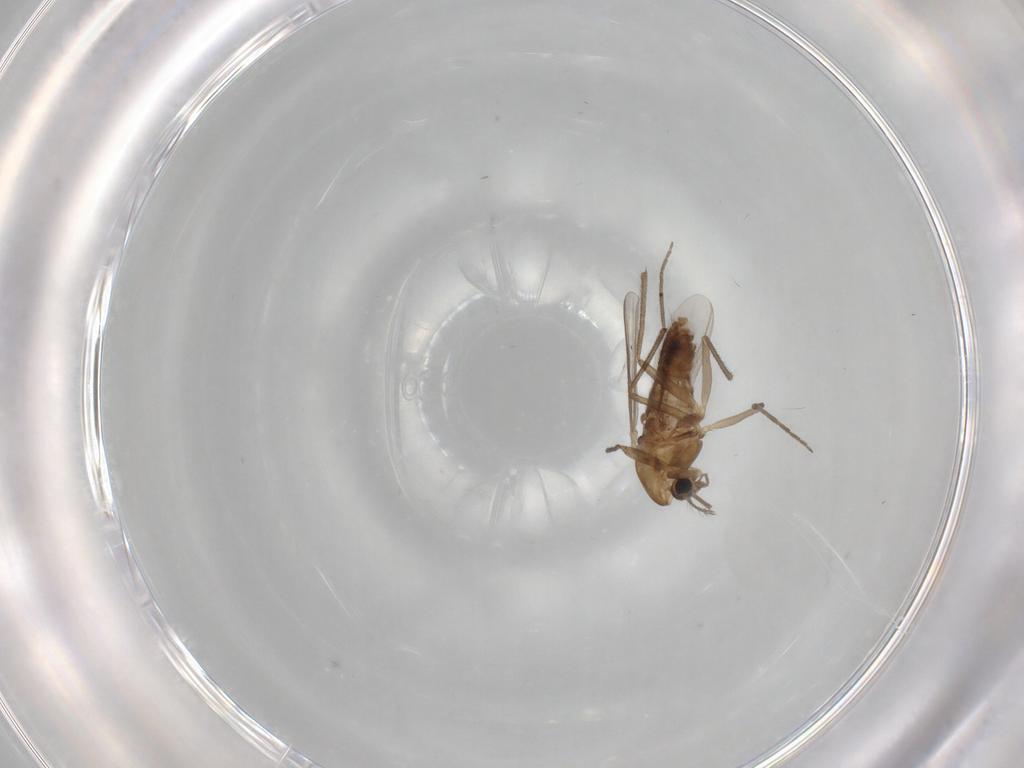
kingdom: Animalia
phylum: Arthropoda
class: Insecta
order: Diptera
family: Chironomidae
